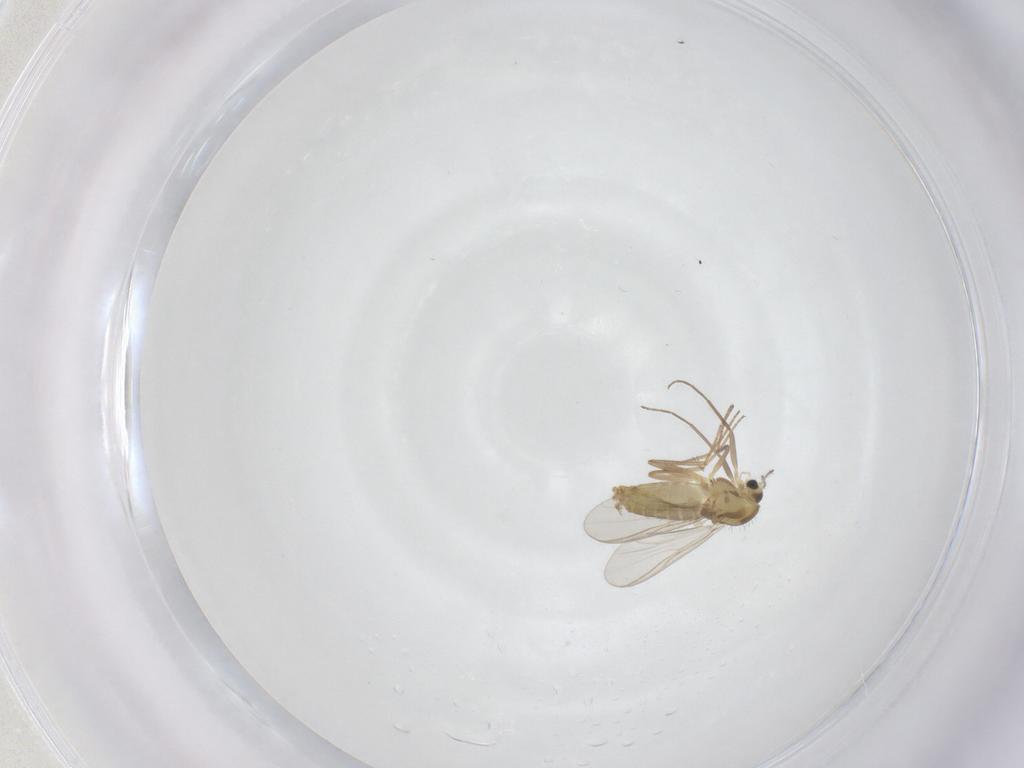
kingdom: Animalia
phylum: Arthropoda
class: Insecta
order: Diptera
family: Chironomidae
